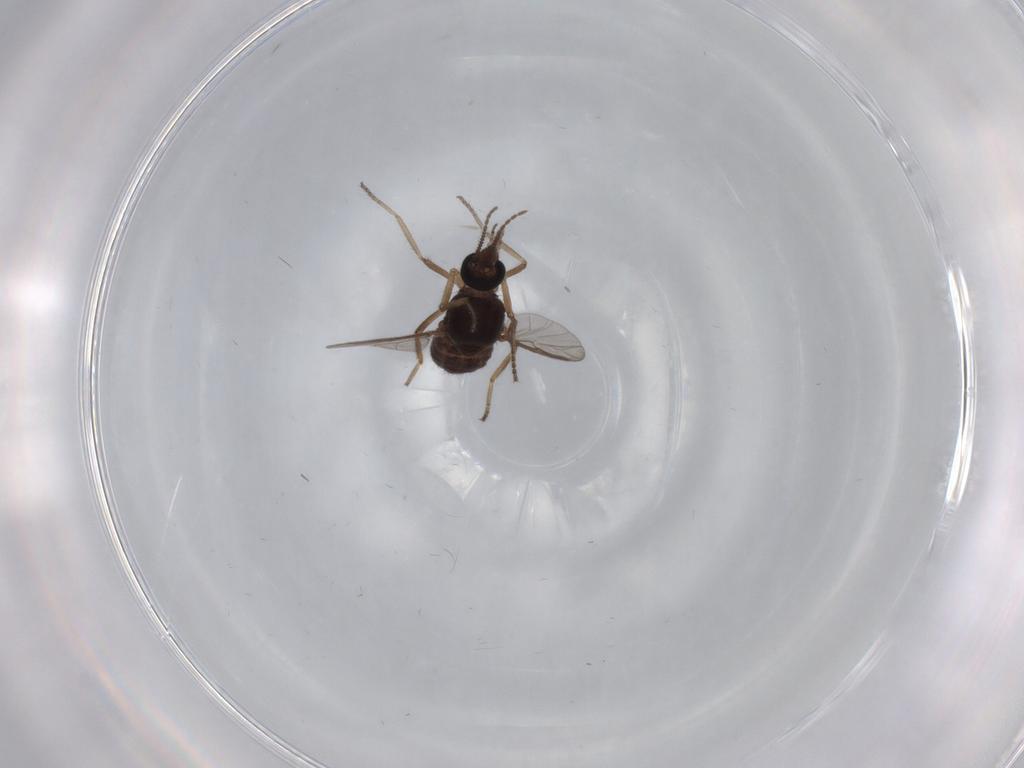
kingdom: Animalia
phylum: Arthropoda
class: Insecta
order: Diptera
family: Ceratopogonidae
